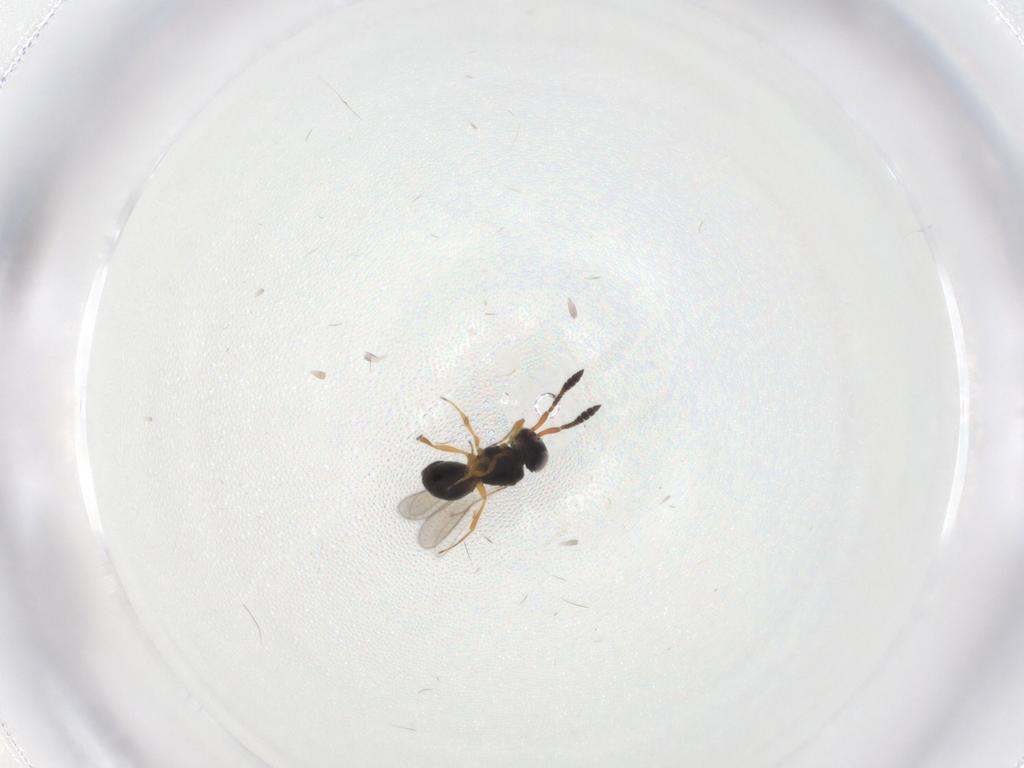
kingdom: Animalia
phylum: Arthropoda
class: Insecta
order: Hymenoptera
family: Scelionidae
